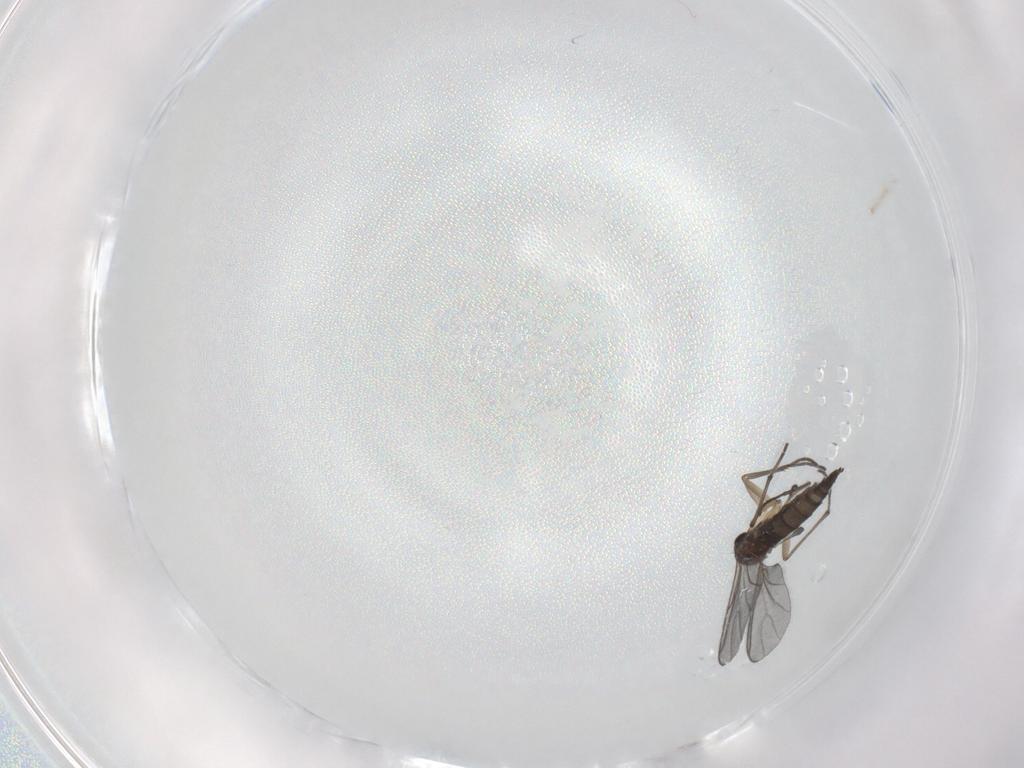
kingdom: Animalia
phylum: Arthropoda
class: Insecta
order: Diptera
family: Sciaridae
